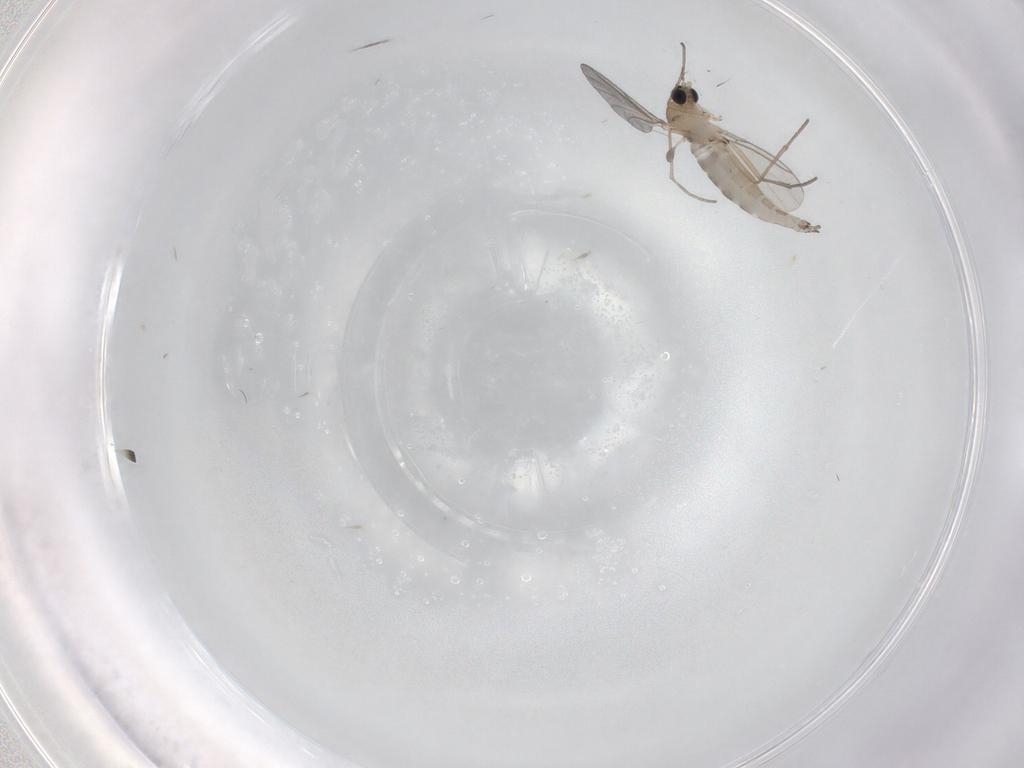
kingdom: Animalia
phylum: Arthropoda
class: Insecta
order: Diptera
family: Sciaridae
